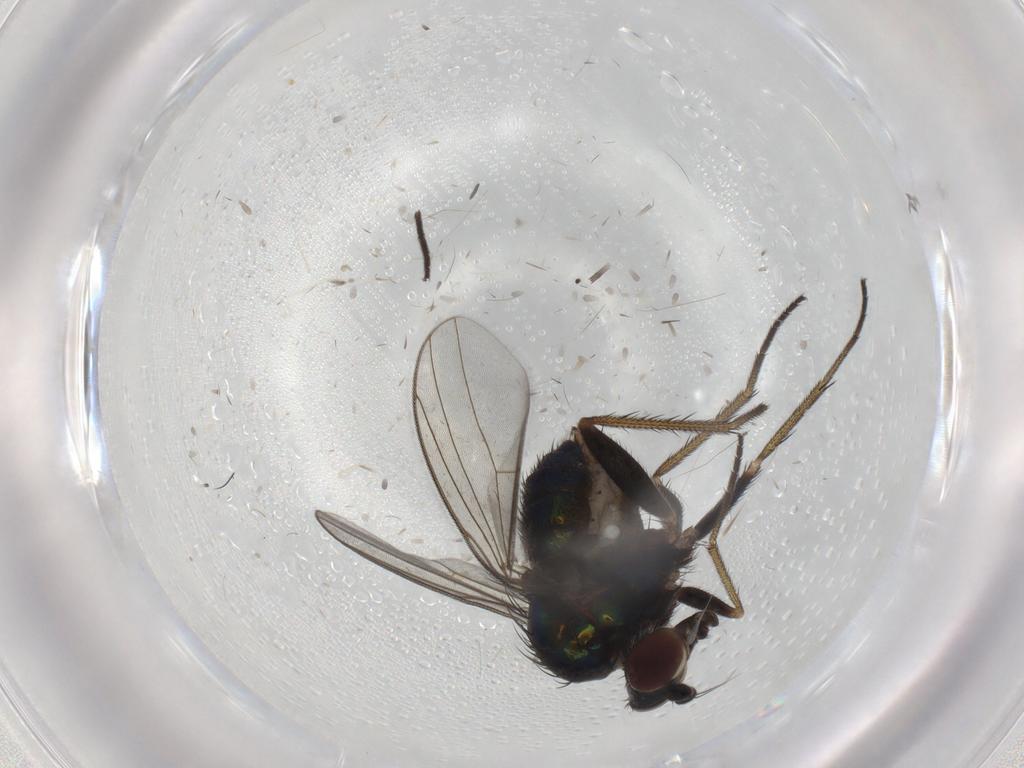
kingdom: Animalia
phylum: Arthropoda
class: Insecta
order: Diptera
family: Dolichopodidae
